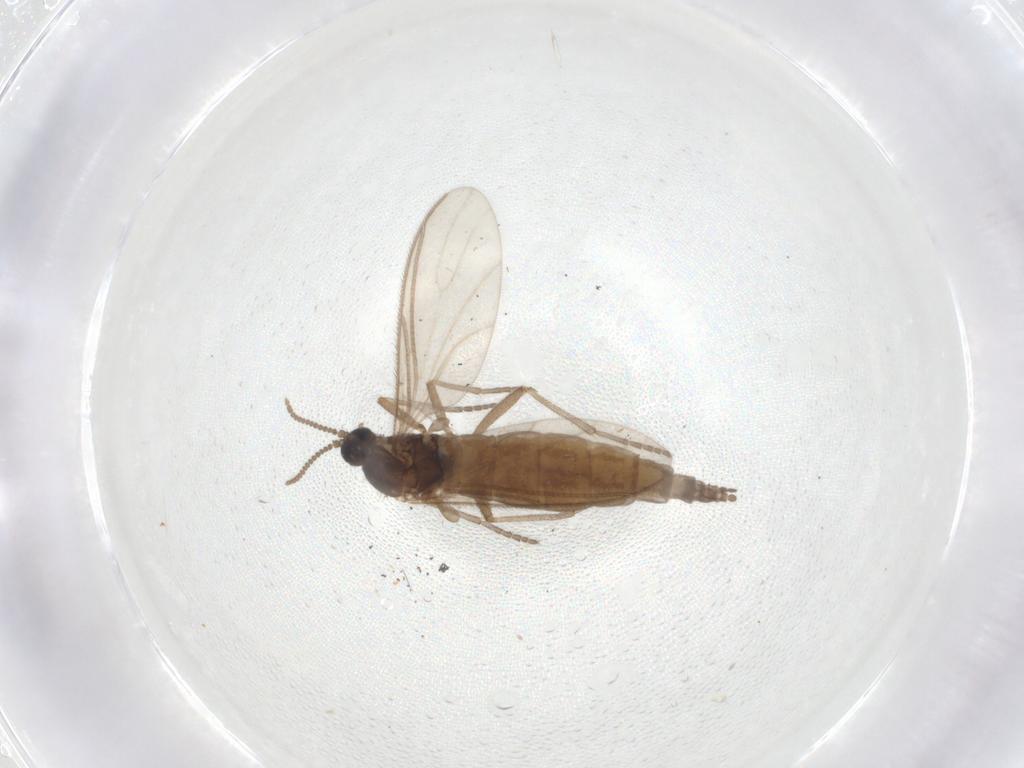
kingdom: Animalia
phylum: Arthropoda
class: Insecta
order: Diptera
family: Sciaridae
